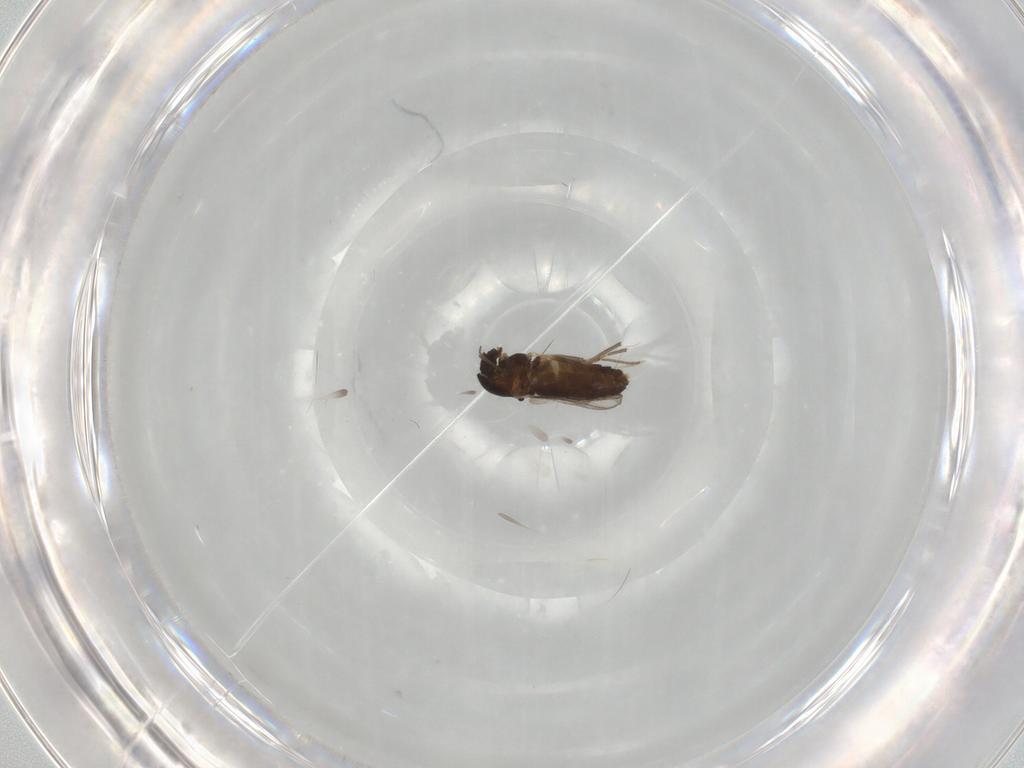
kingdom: Animalia
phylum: Arthropoda
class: Insecta
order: Diptera
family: Chironomidae
